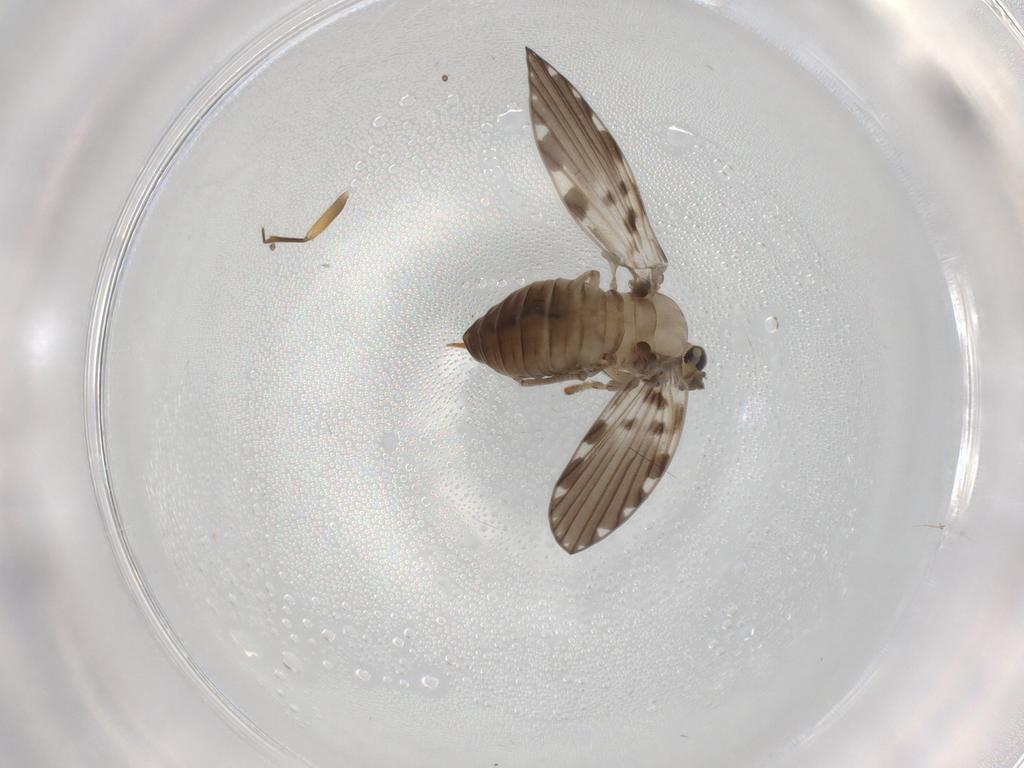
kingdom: Animalia
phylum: Arthropoda
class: Insecta
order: Diptera
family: Psychodidae
